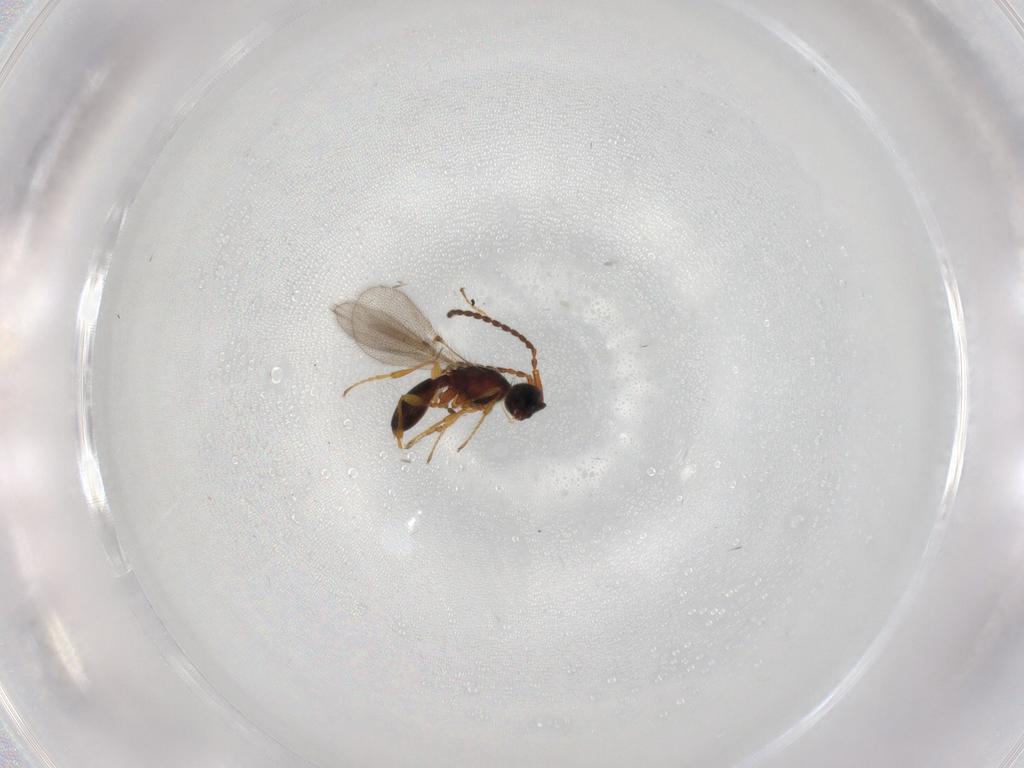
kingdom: Animalia
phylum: Arthropoda
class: Insecta
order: Hymenoptera
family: Diapriidae
